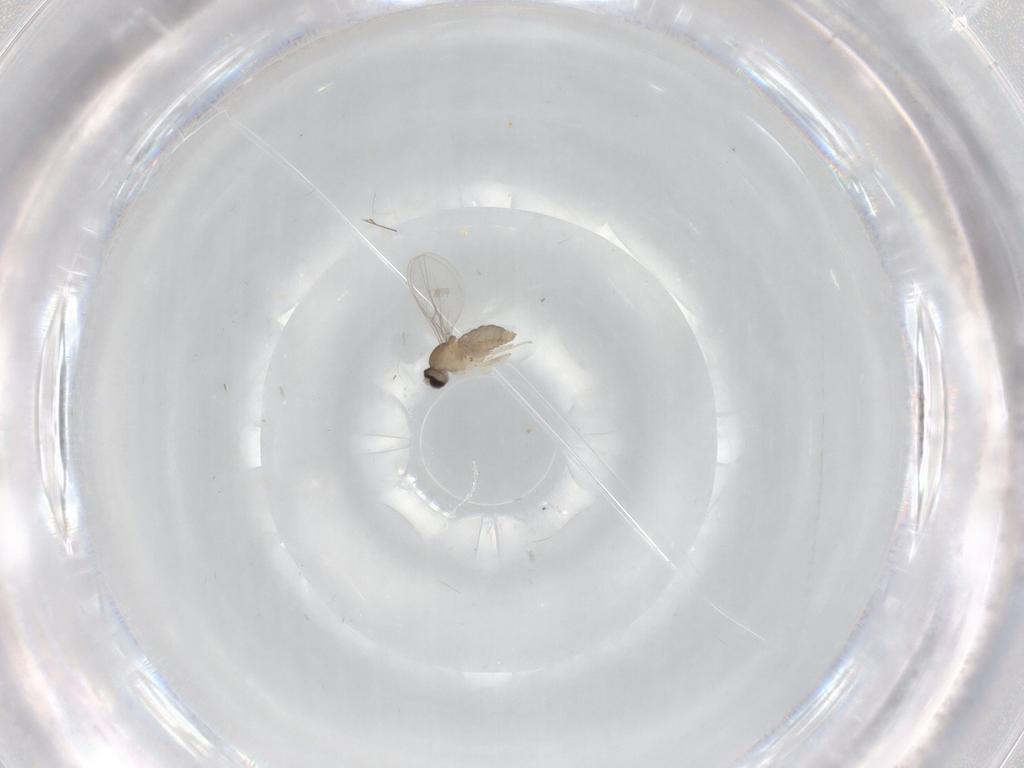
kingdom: Animalia
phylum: Arthropoda
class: Insecta
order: Diptera
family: Cecidomyiidae
